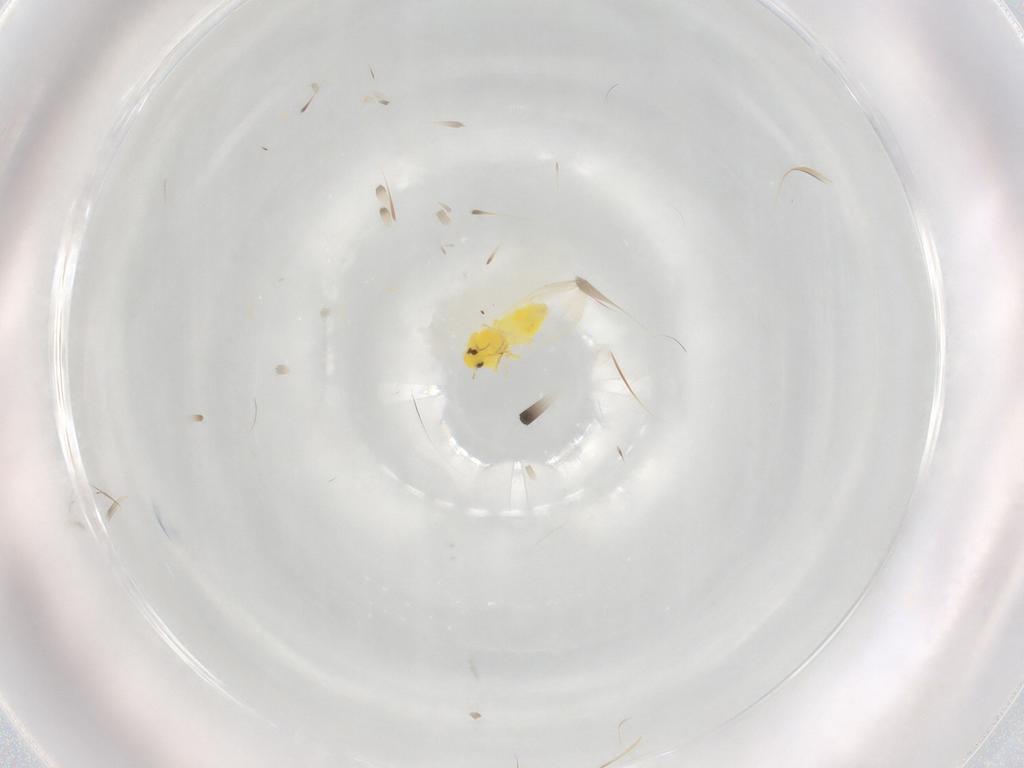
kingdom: Animalia
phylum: Arthropoda
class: Insecta
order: Hemiptera
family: Aleyrodidae
